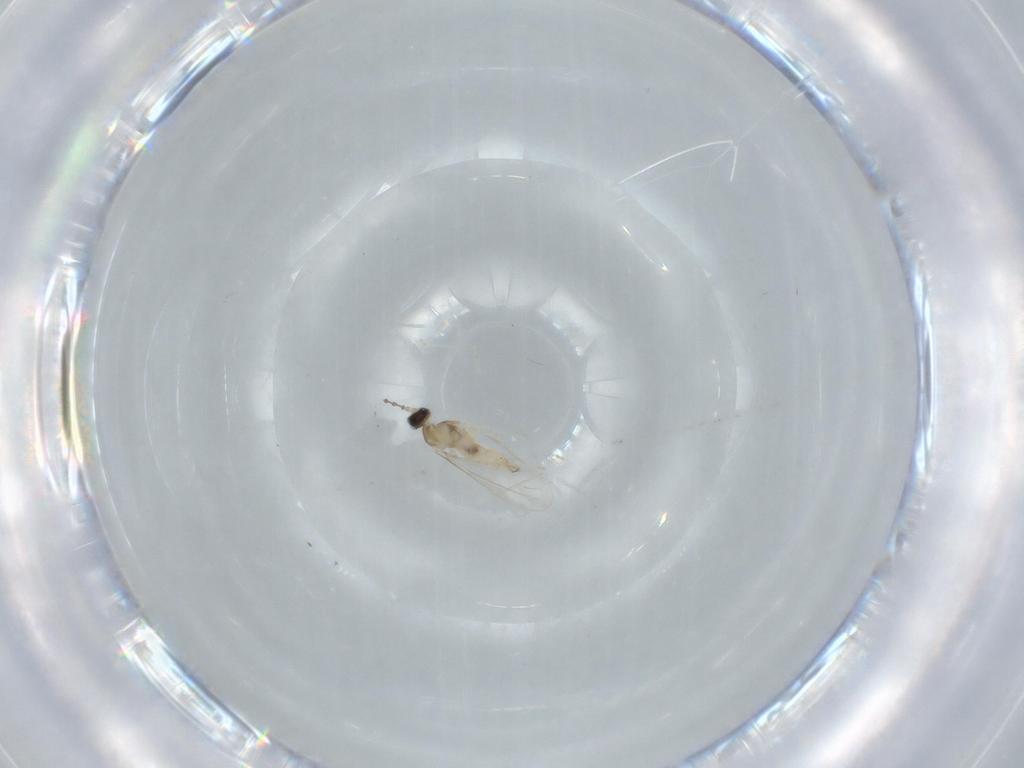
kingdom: Animalia
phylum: Arthropoda
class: Insecta
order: Diptera
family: Cecidomyiidae
